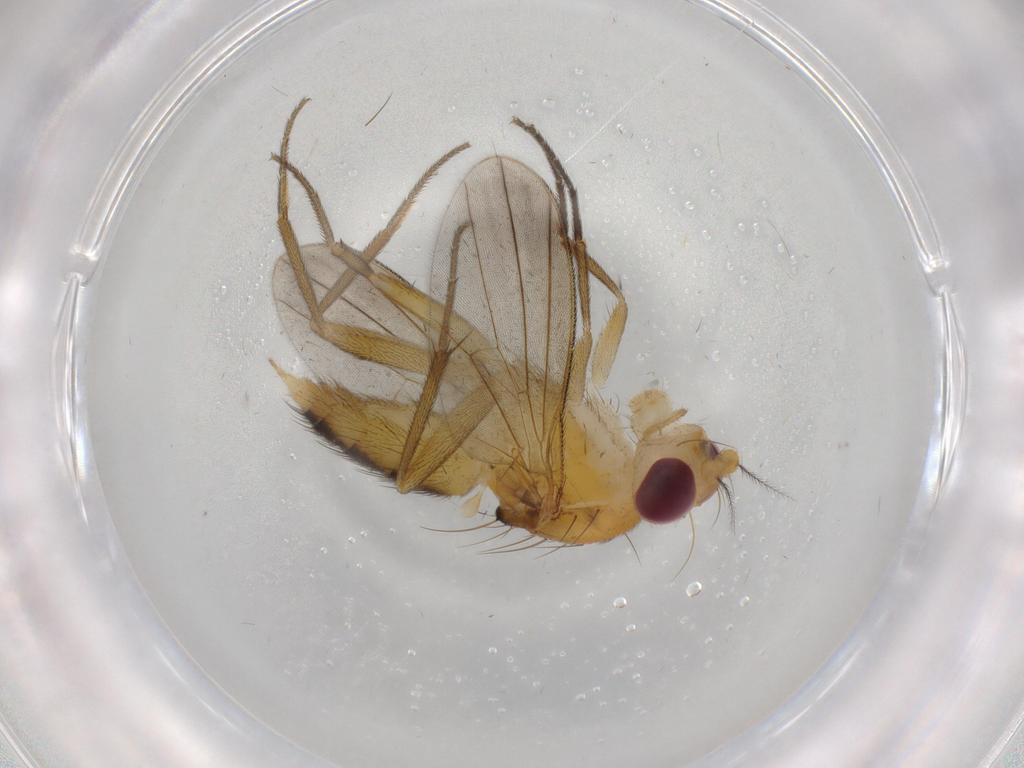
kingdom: Animalia
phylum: Arthropoda
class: Insecta
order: Diptera
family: Clusiidae
